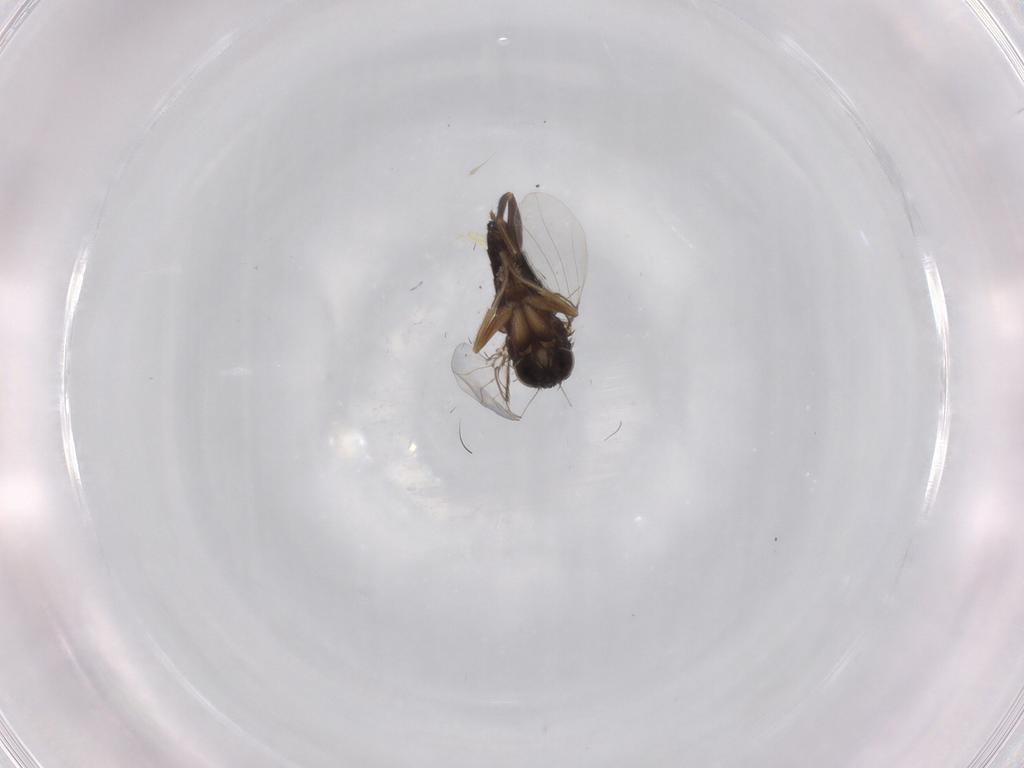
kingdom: Animalia
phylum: Arthropoda
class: Insecta
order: Diptera
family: Phoridae
